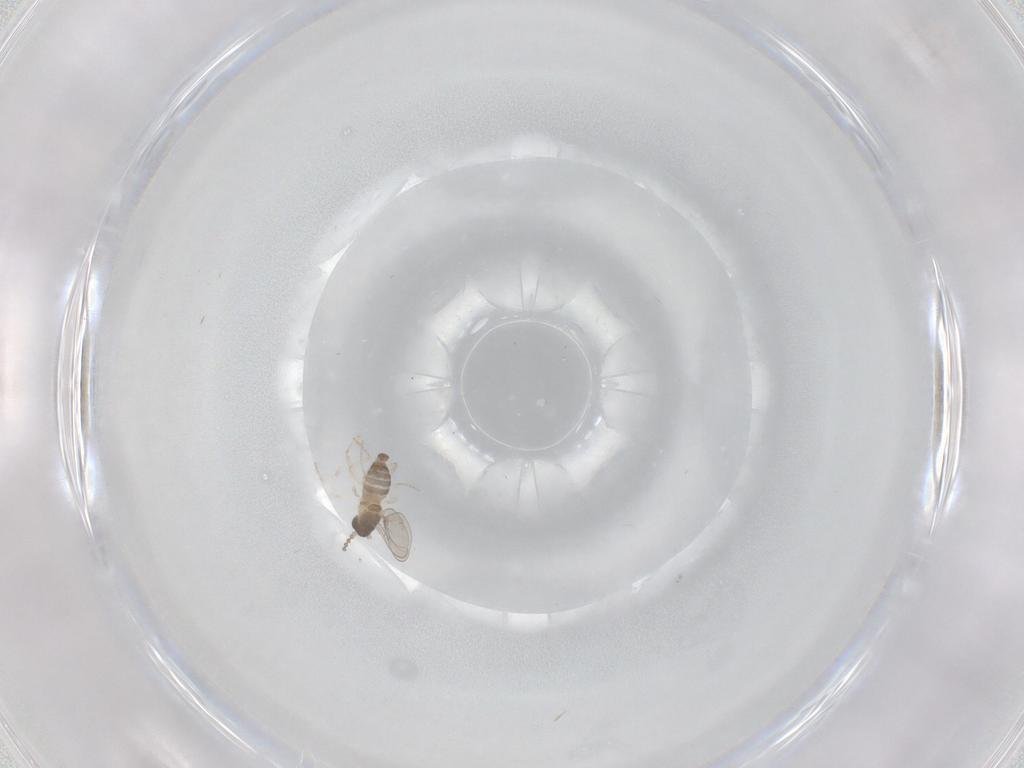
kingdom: Animalia
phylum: Arthropoda
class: Insecta
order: Diptera
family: Cecidomyiidae
